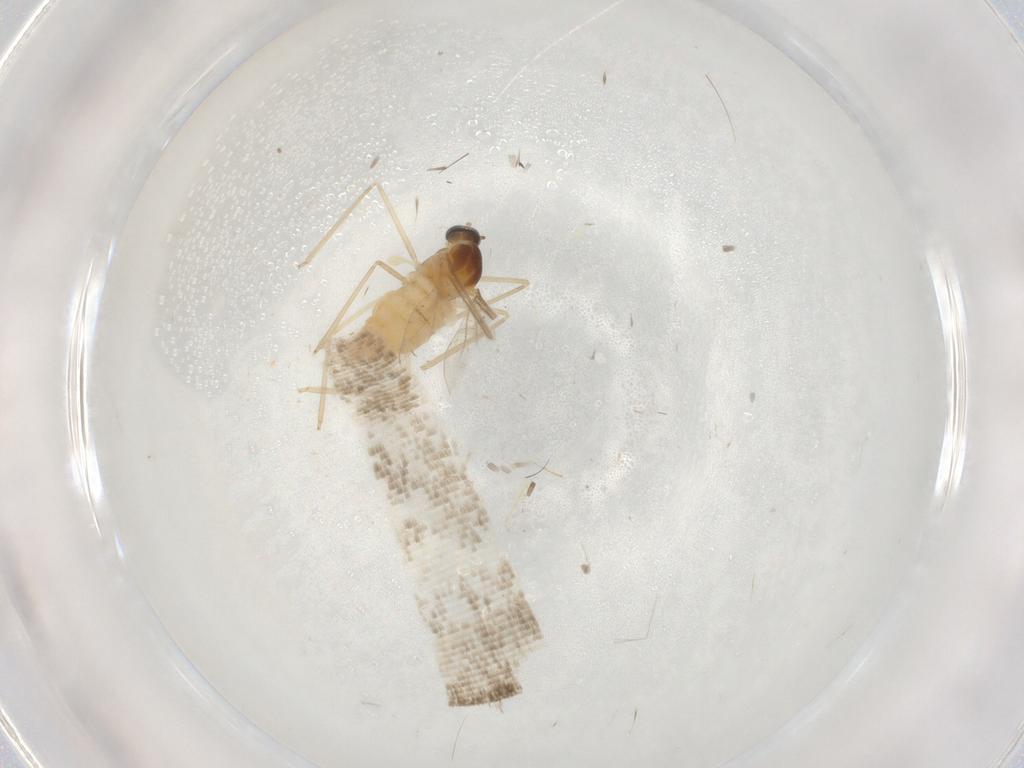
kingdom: Animalia
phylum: Arthropoda
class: Insecta
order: Diptera
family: Cecidomyiidae
